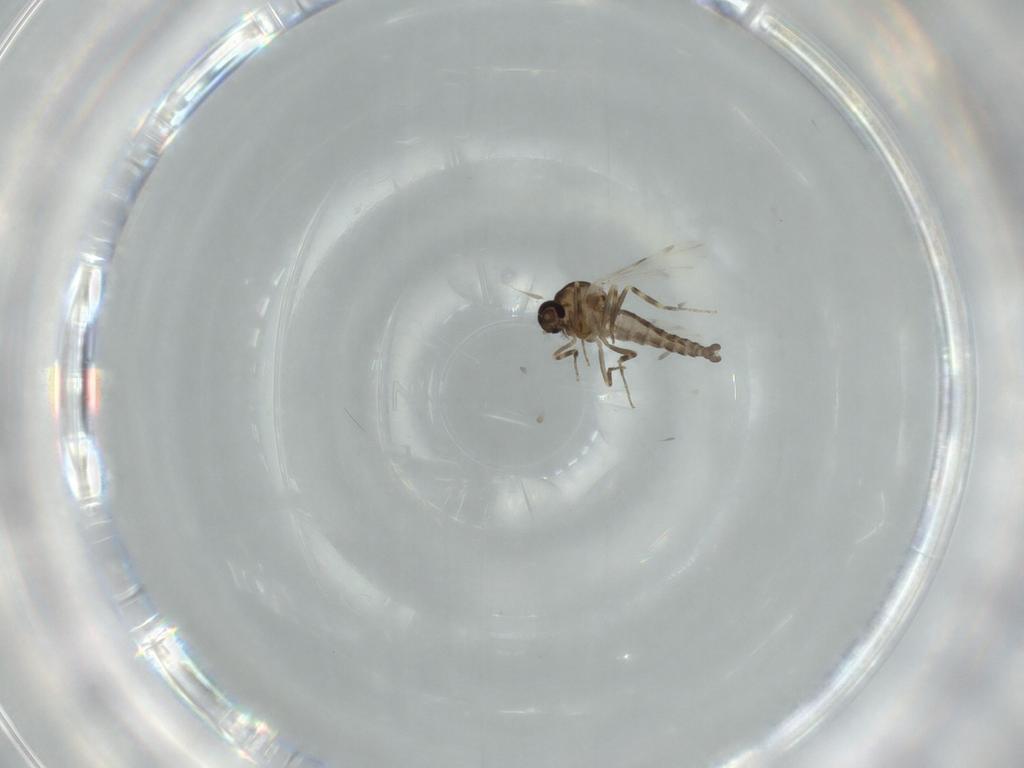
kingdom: Animalia
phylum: Arthropoda
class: Insecta
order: Diptera
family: Ceratopogonidae
